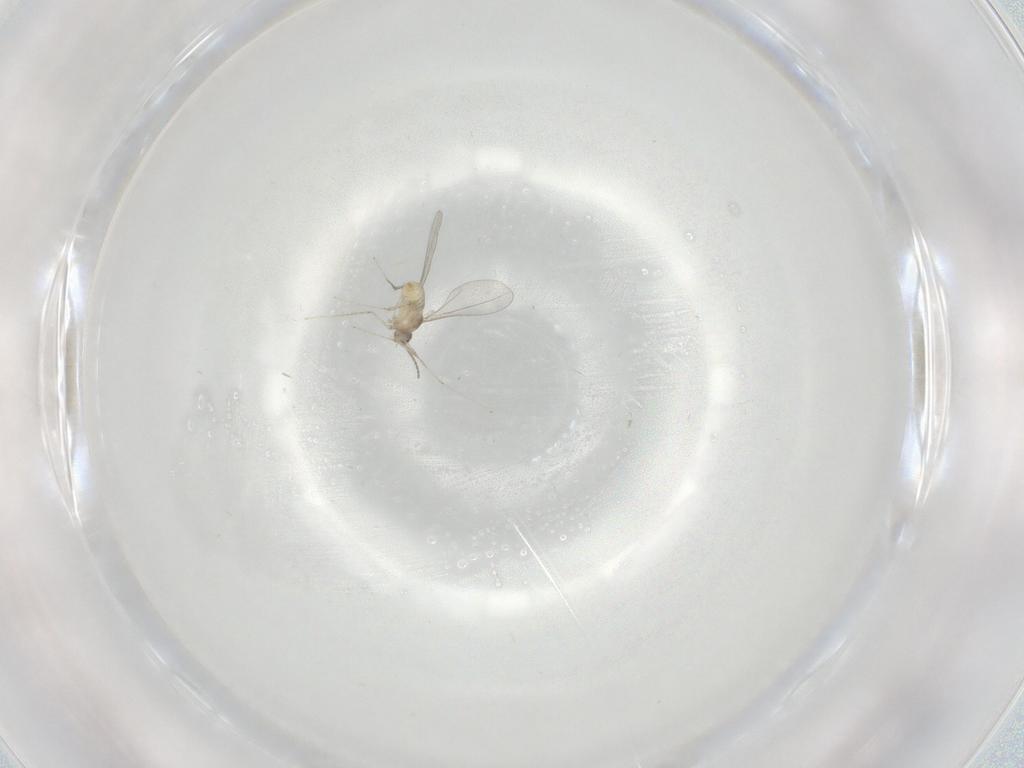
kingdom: Animalia
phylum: Arthropoda
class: Insecta
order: Diptera
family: Cecidomyiidae
